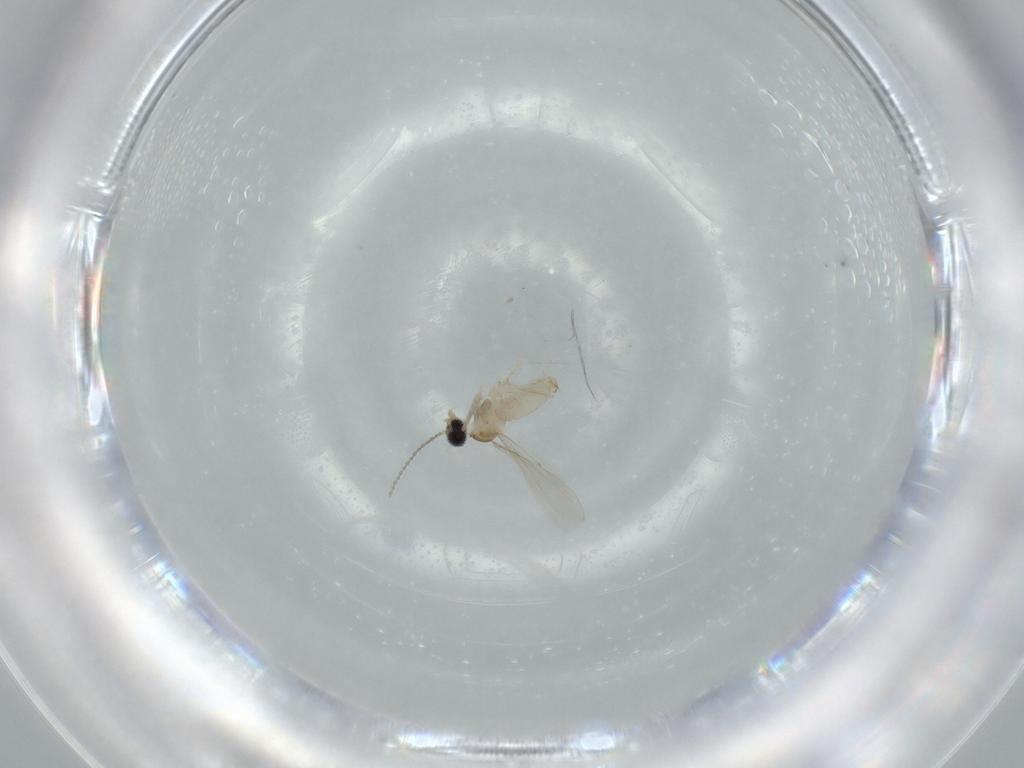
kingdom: Animalia
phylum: Arthropoda
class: Insecta
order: Diptera
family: Cecidomyiidae
